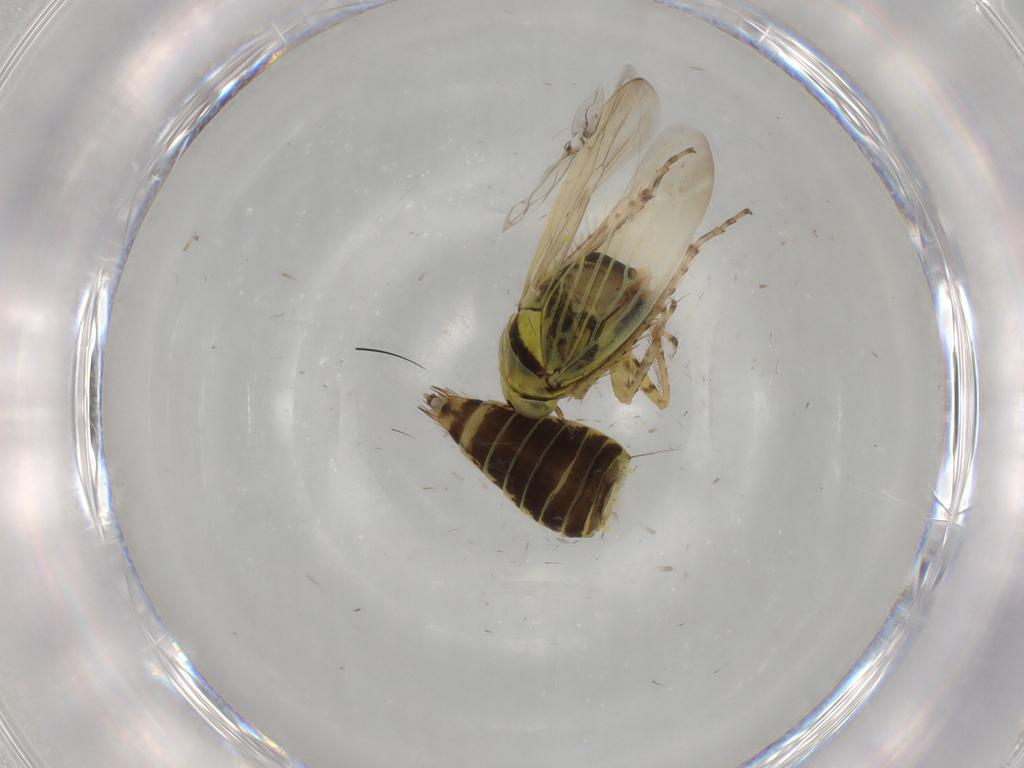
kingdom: Animalia
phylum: Arthropoda
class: Insecta
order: Hemiptera
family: Cicadellidae
